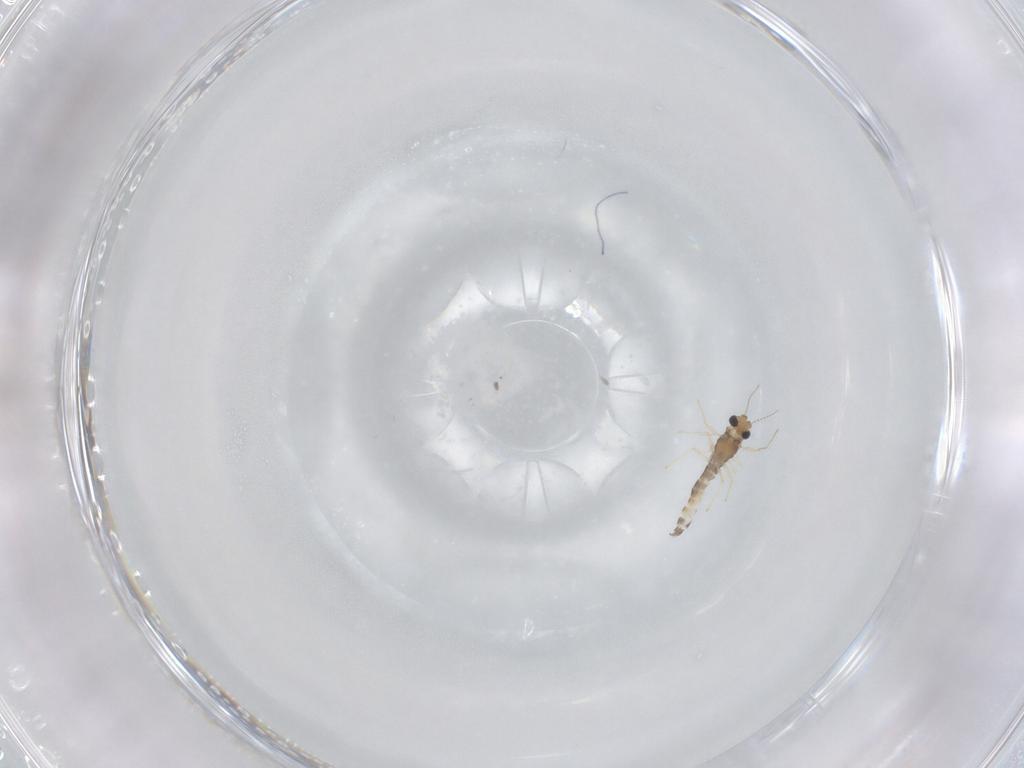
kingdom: Animalia
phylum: Arthropoda
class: Insecta
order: Diptera
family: Chironomidae
